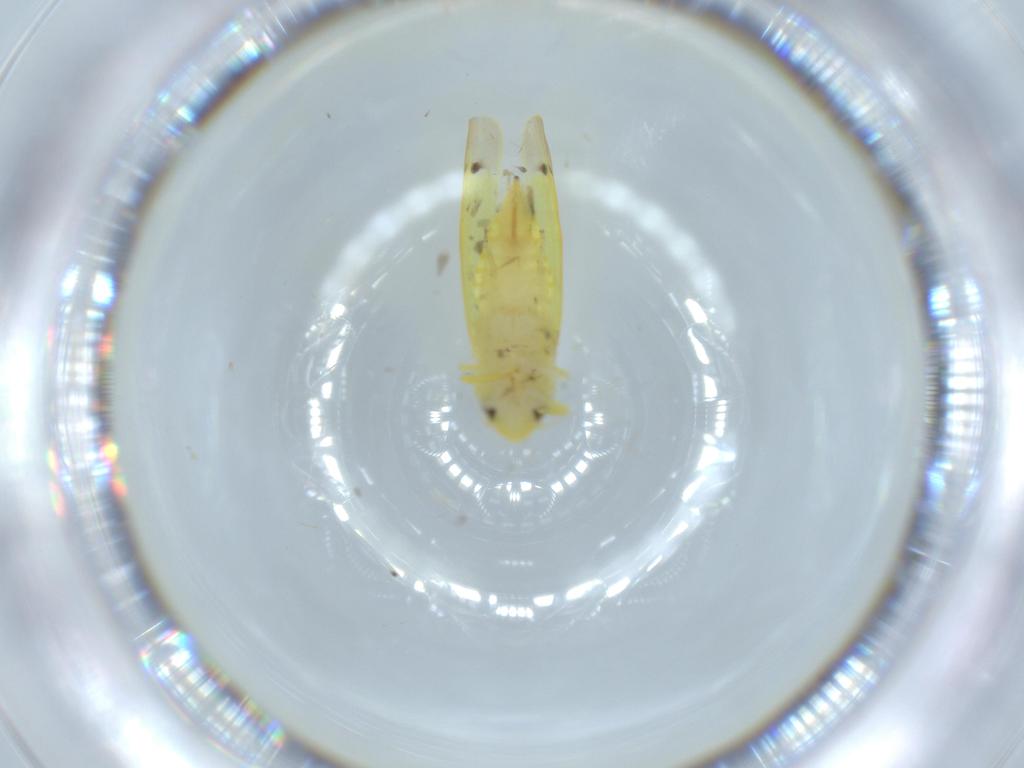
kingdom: Animalia
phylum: Arthropoda
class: Insecta
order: Hemiptera
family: Cicadellidae
